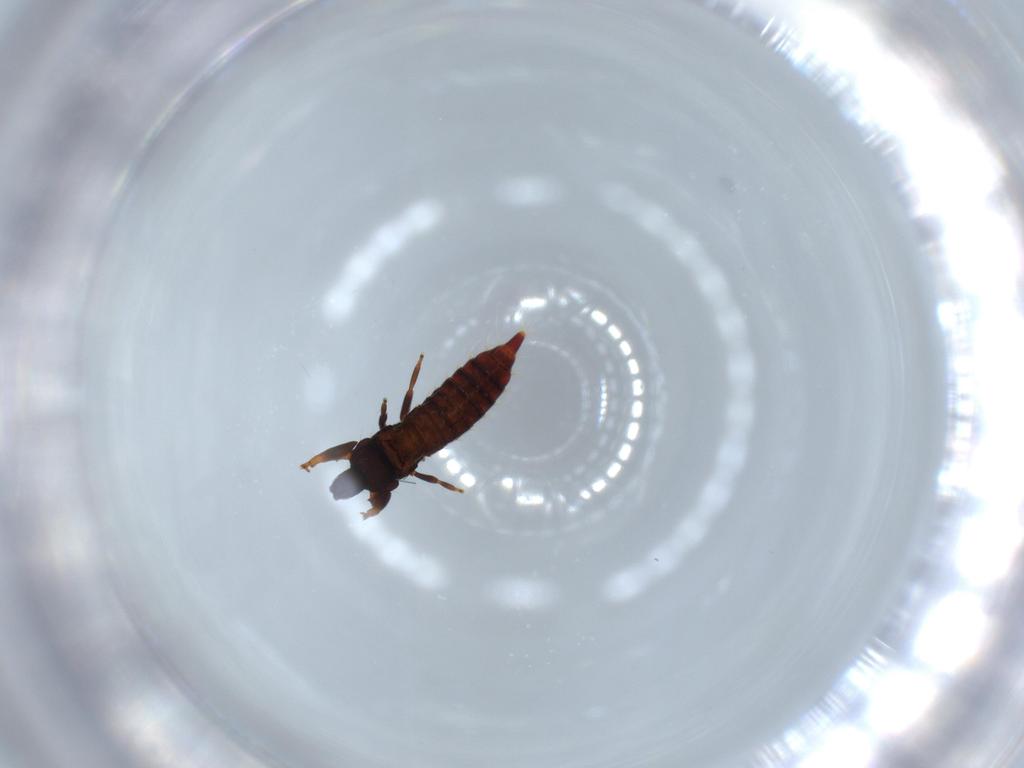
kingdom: Animalia
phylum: Arthropoda
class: Insecta
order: Thysanoptera
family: Phlaeothripidae
